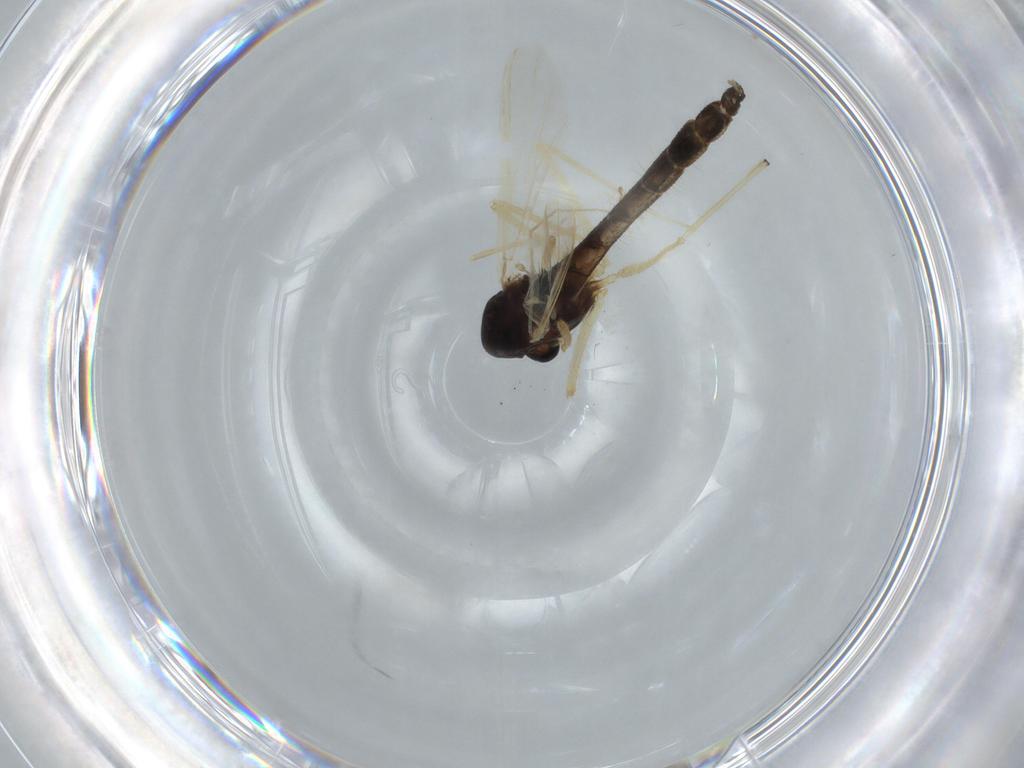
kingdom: Animalia
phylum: Arthropoda
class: Insecta
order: Diptera
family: Chironomidae
